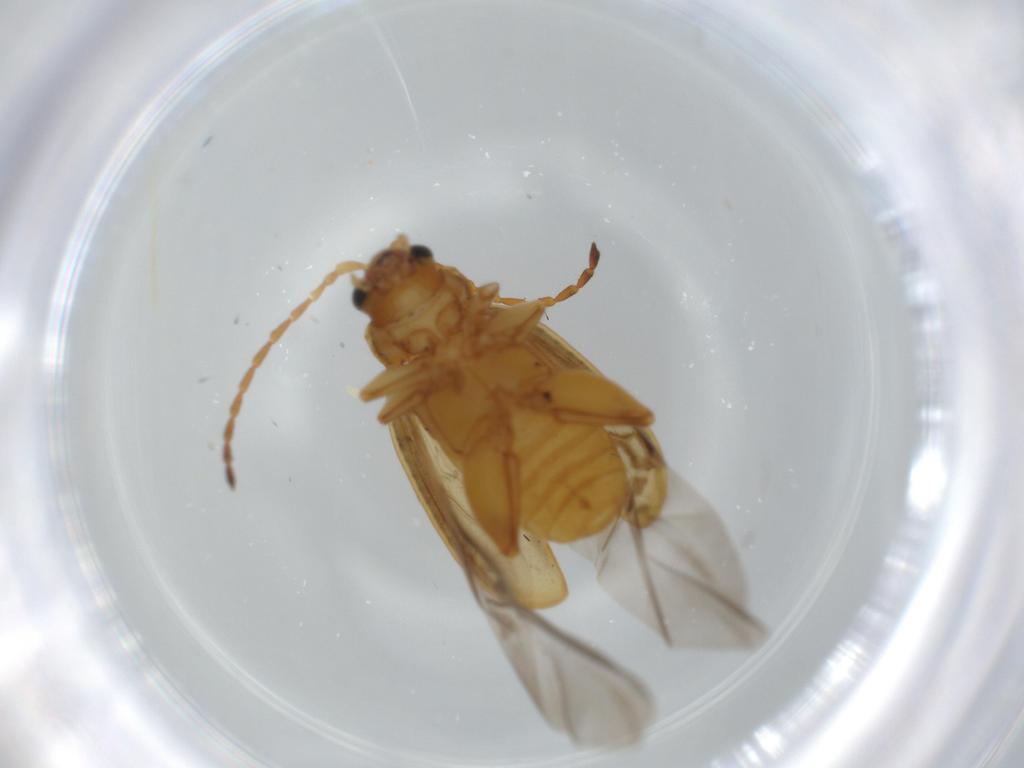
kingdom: Animalia
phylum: Arthropoda
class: Insecta
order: Coleoptera
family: Chrysomelidae
